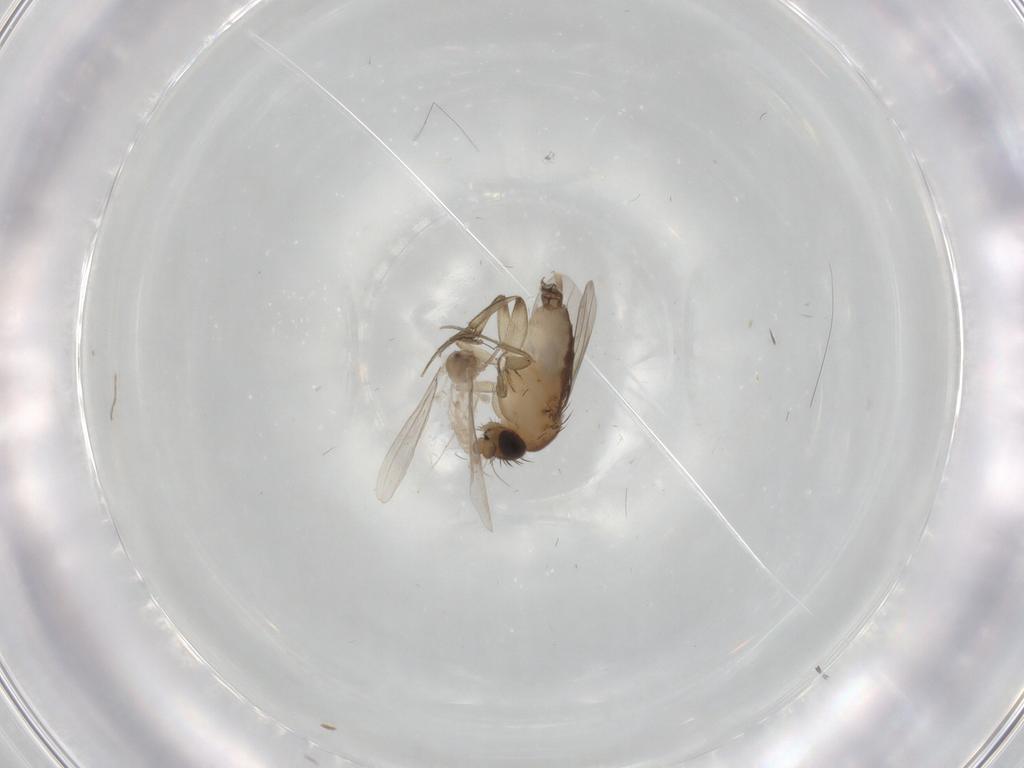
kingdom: Animalia
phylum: Arthropoda
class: Insecta
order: Diptera
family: Phoridae
